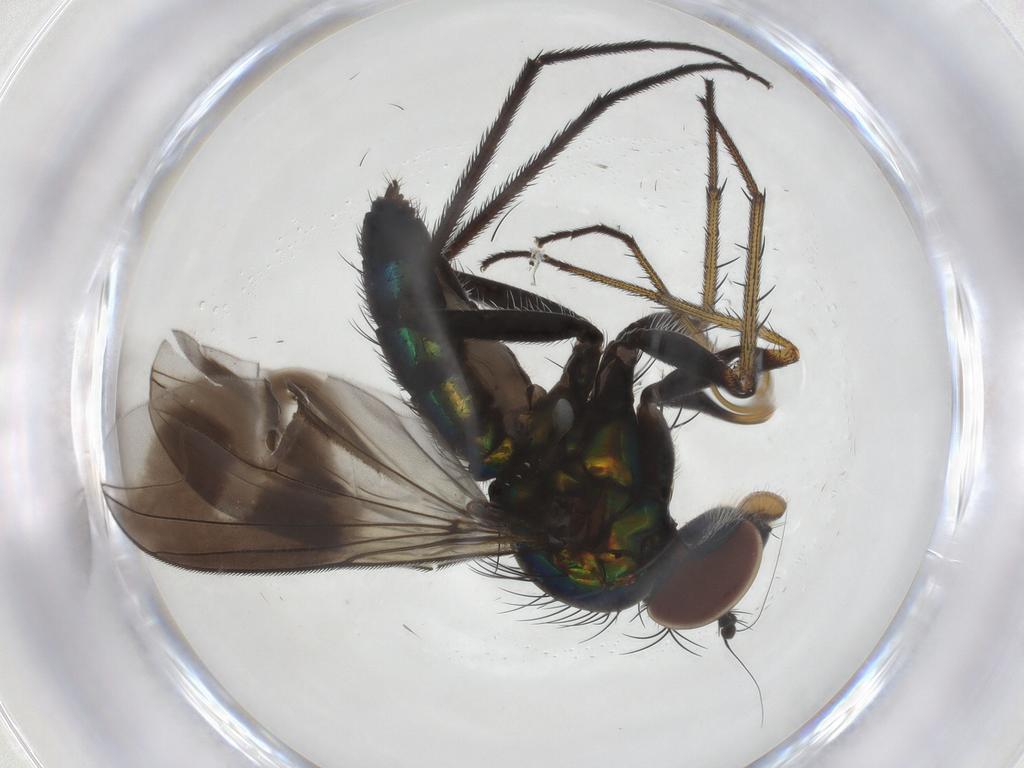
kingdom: Animalia
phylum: Arthropoda
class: Insecta
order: Diptera
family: Dolichopodidae
